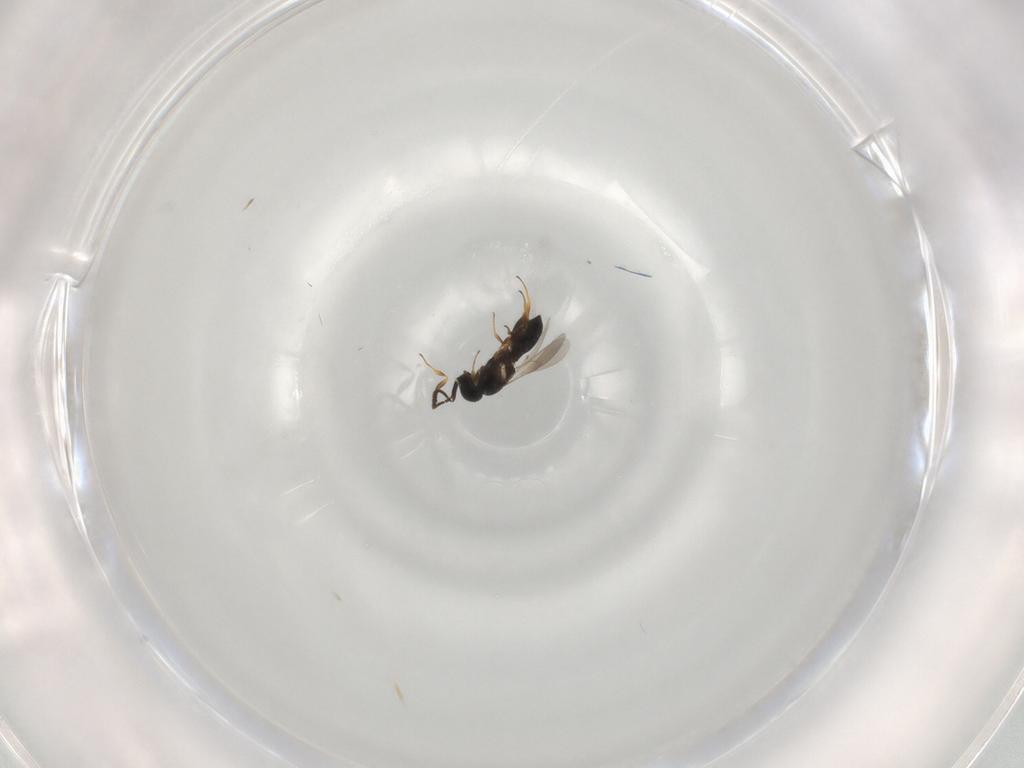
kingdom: Animalia
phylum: Arthropoda
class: Insecta
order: Hymenoptera
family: Scelionidae
